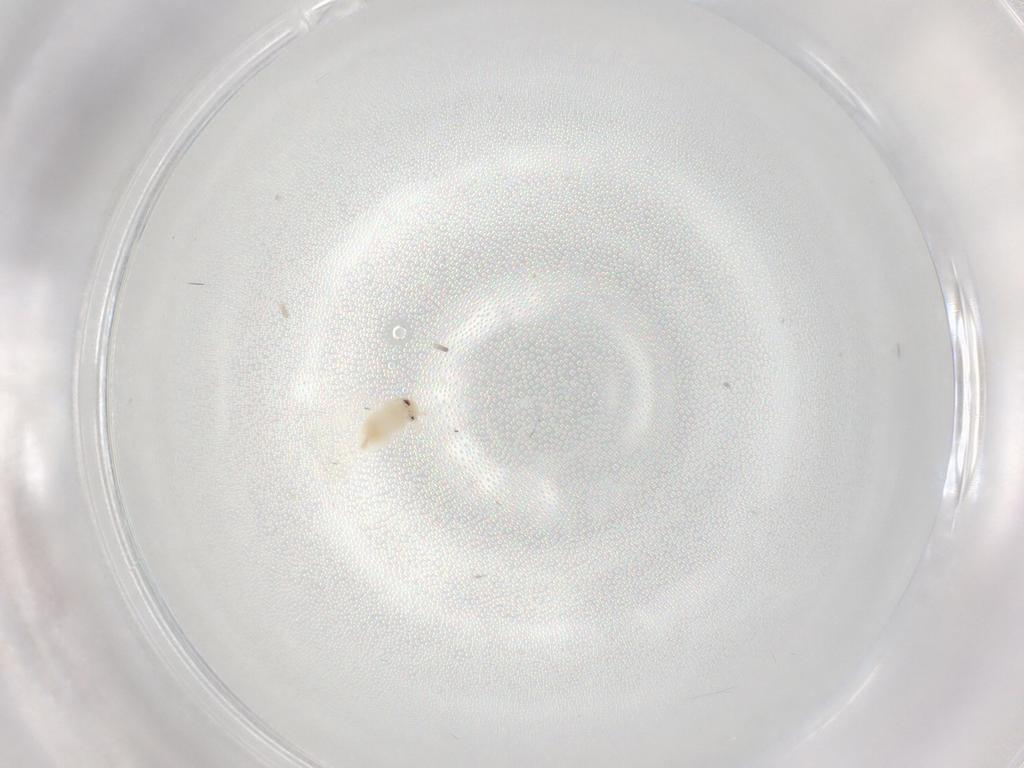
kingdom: Animalia
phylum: Arthropoda
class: Insecta
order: Hemiptera
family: Aleyrodidae
